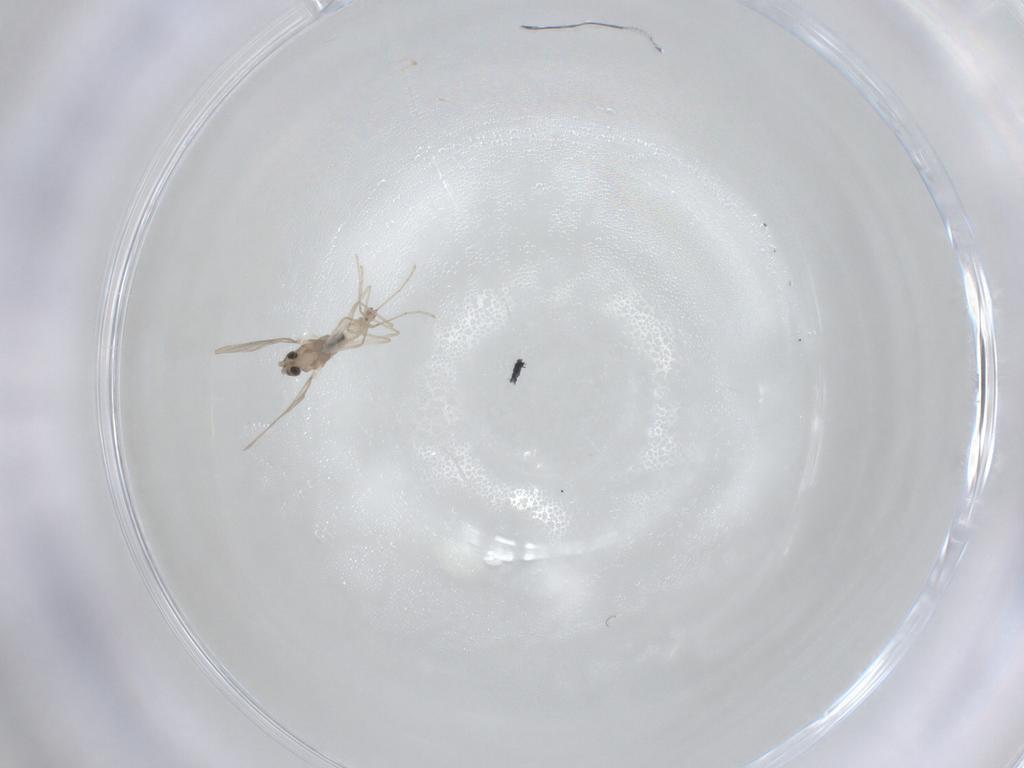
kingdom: Animalia
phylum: Arthropoda
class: Insecta
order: Diptera
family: Cecidomyiidae
